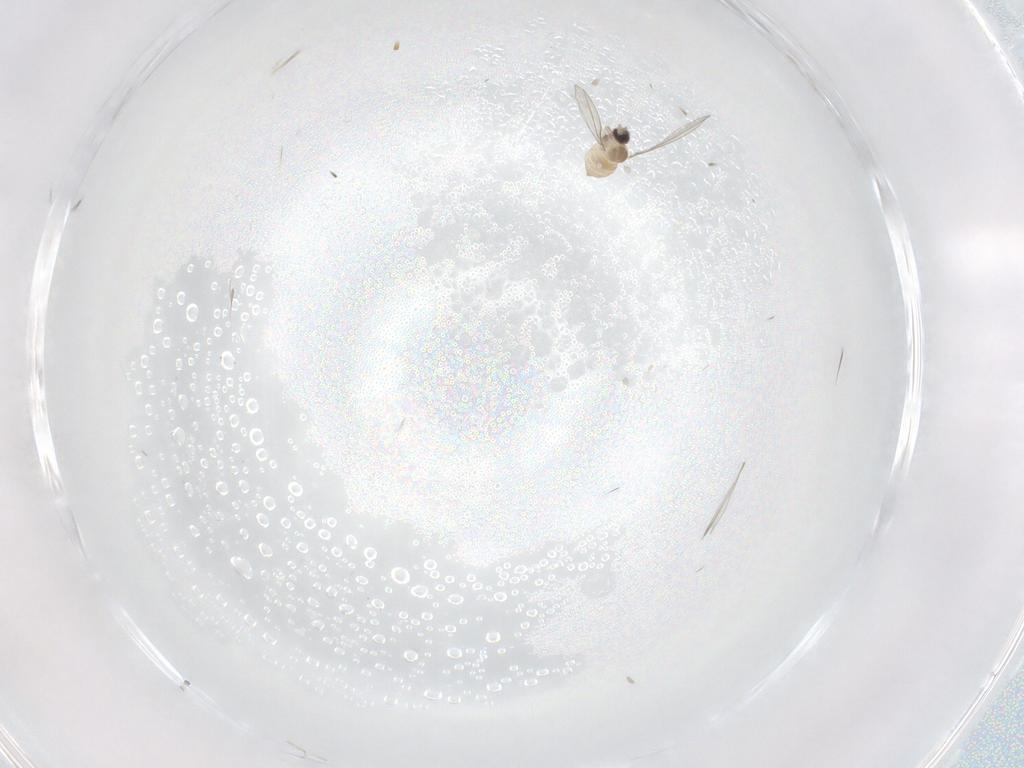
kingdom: Animalia
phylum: Arthropoda
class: Insecta
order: Diptera
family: Cecidomyiidae
